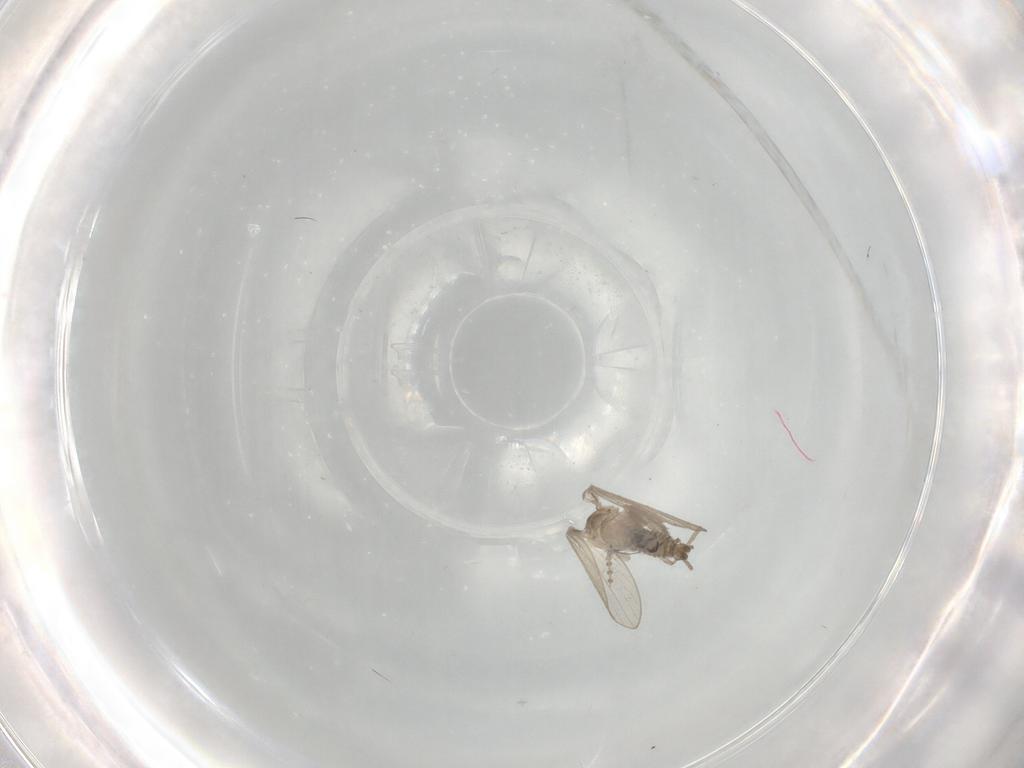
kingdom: Animalia
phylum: Arthropoda
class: Insecta
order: Diptera
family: Psychodidae
